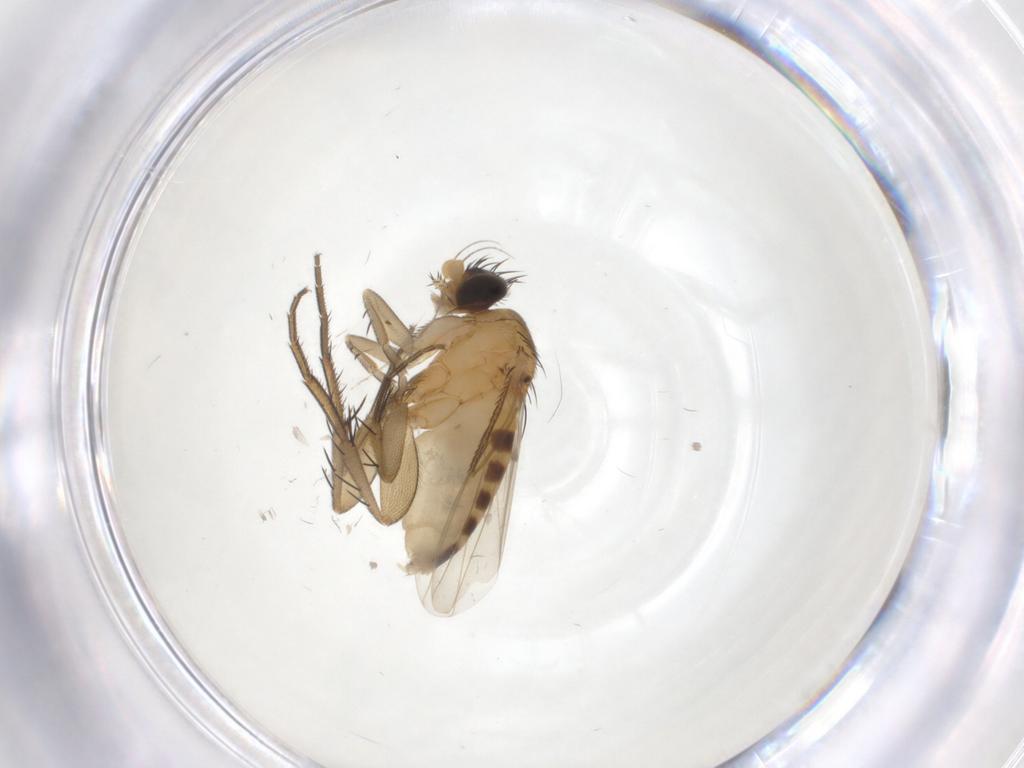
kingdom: Animalia
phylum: Arthropoda
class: Insecta
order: Diptera
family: Phoridae
